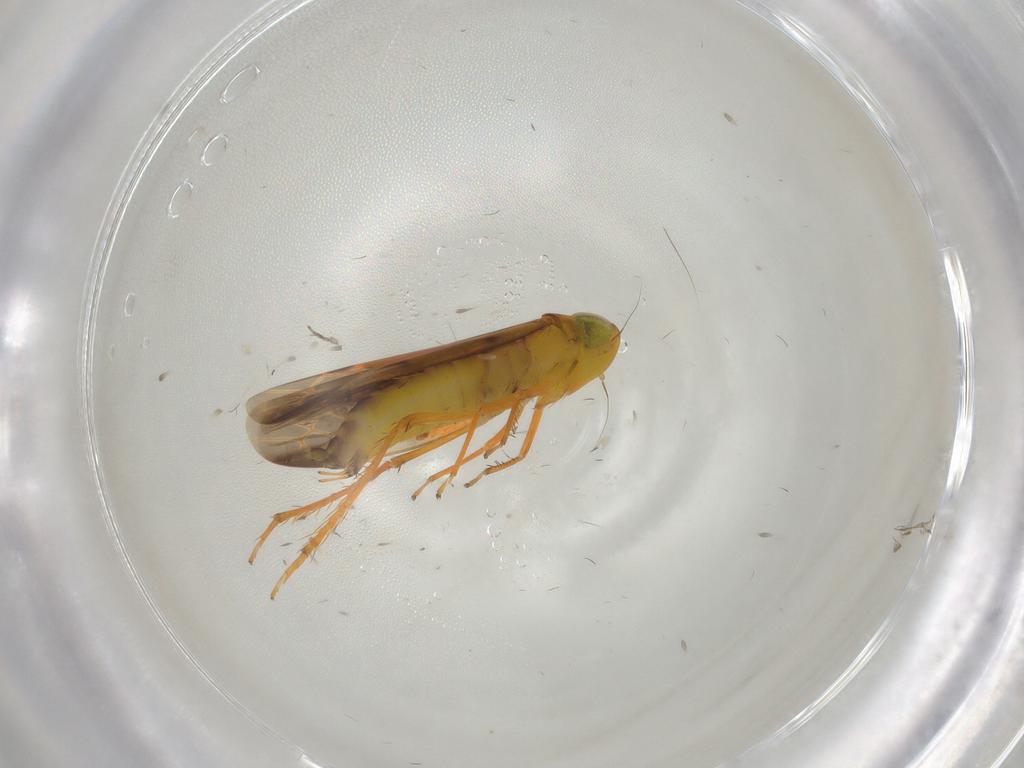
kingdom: Animalia
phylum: Arthropoda
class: Insecta
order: Hemiptera
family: Cicadellidae
